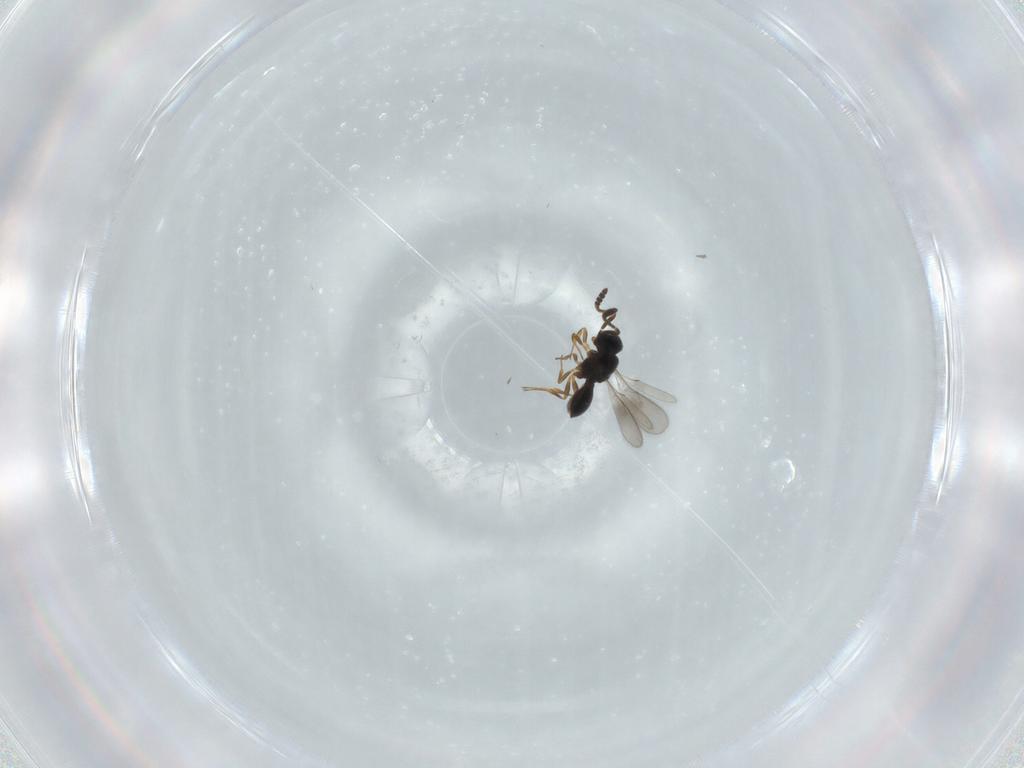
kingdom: Animalia
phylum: Arthropoda
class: Insecta
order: Hymenoptera
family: Scelionidae
